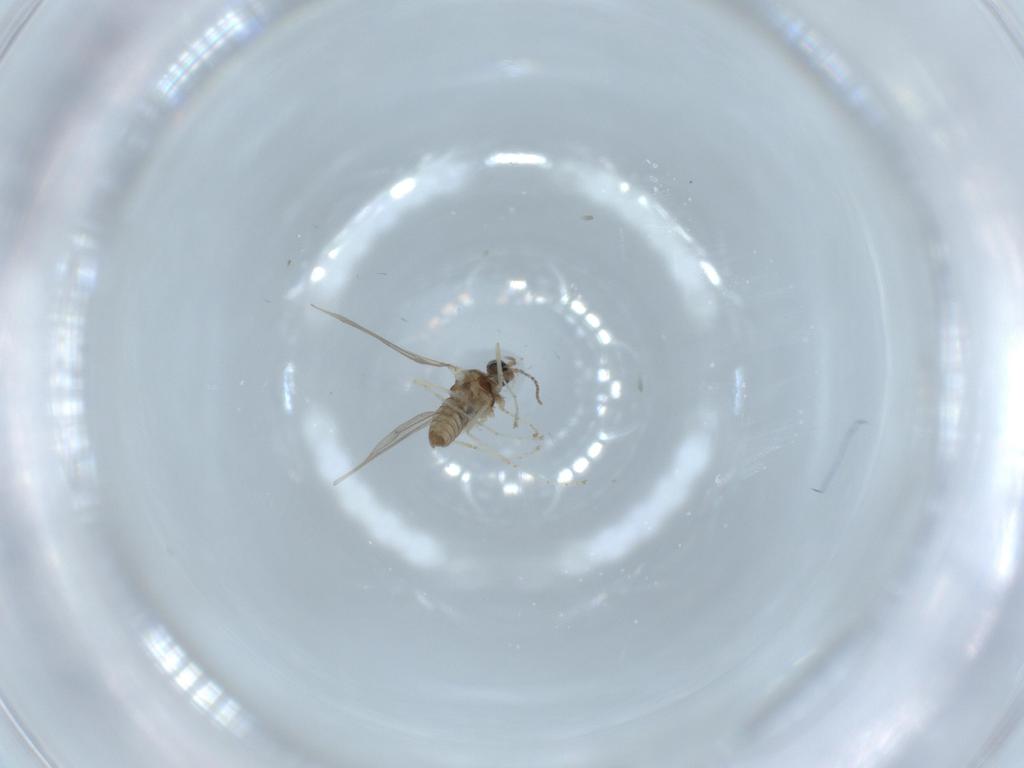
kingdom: Animalia
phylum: Arthropoda
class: Insecta
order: Diptera
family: Cecidomyiidae
